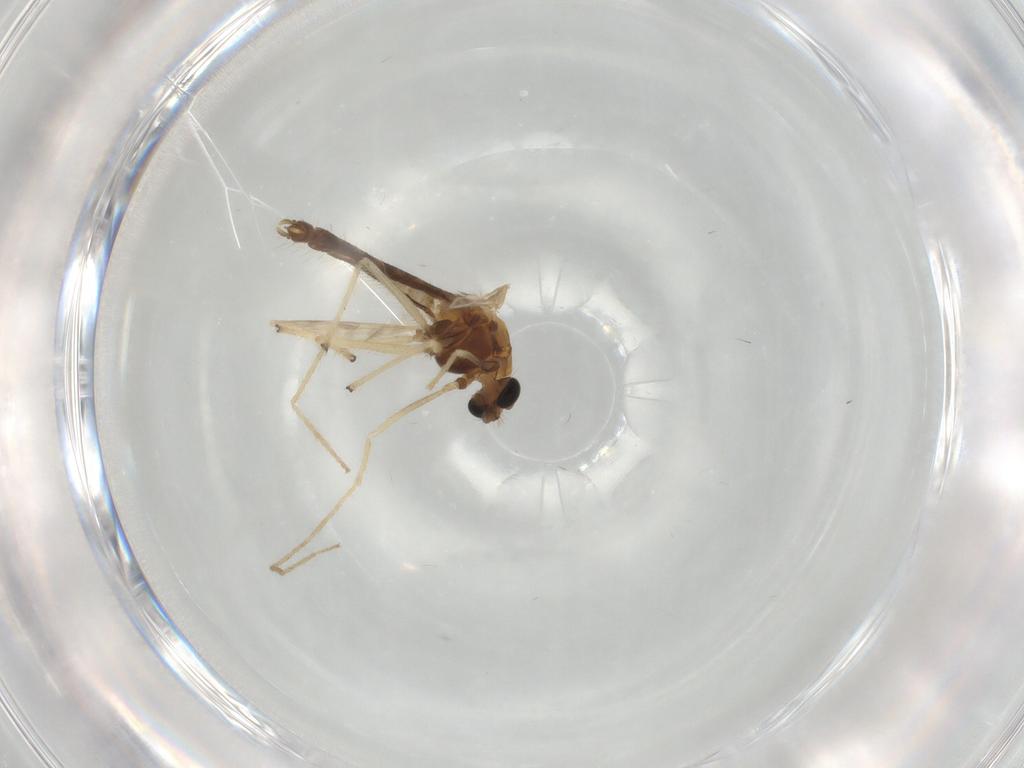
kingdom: Animalia
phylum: Arthropoda
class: Insecta
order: Diptera
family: Chironomidae
